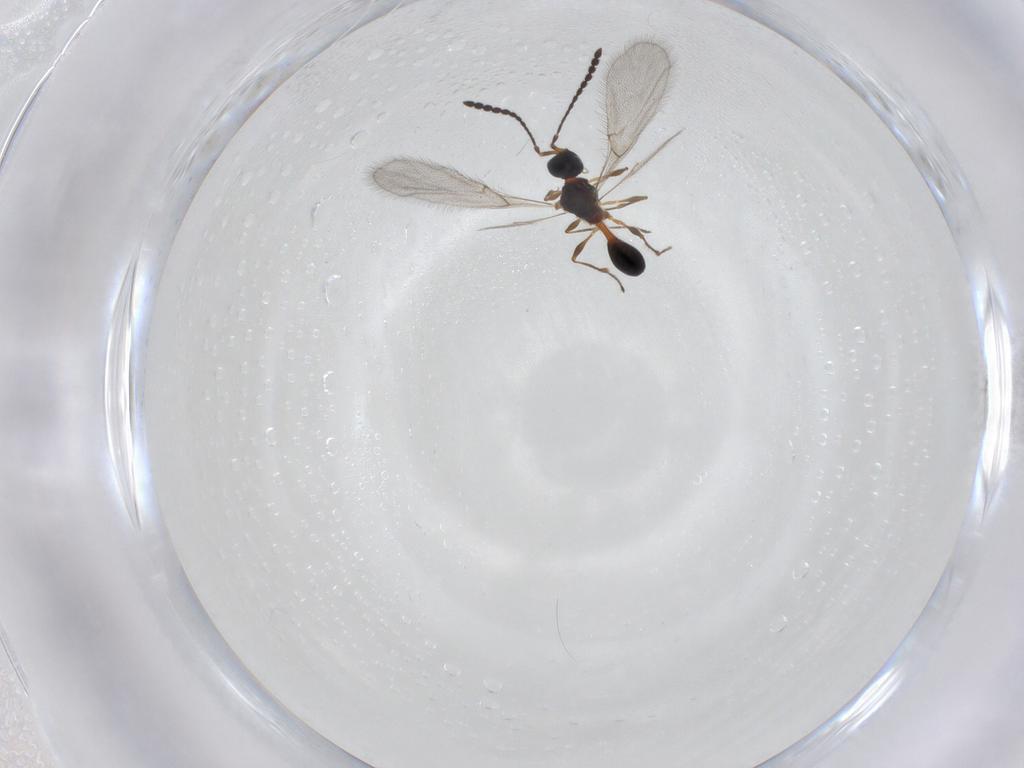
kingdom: Animalia
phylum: Arthropoda
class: Insecta
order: Hymenoptera
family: Diapriidae
